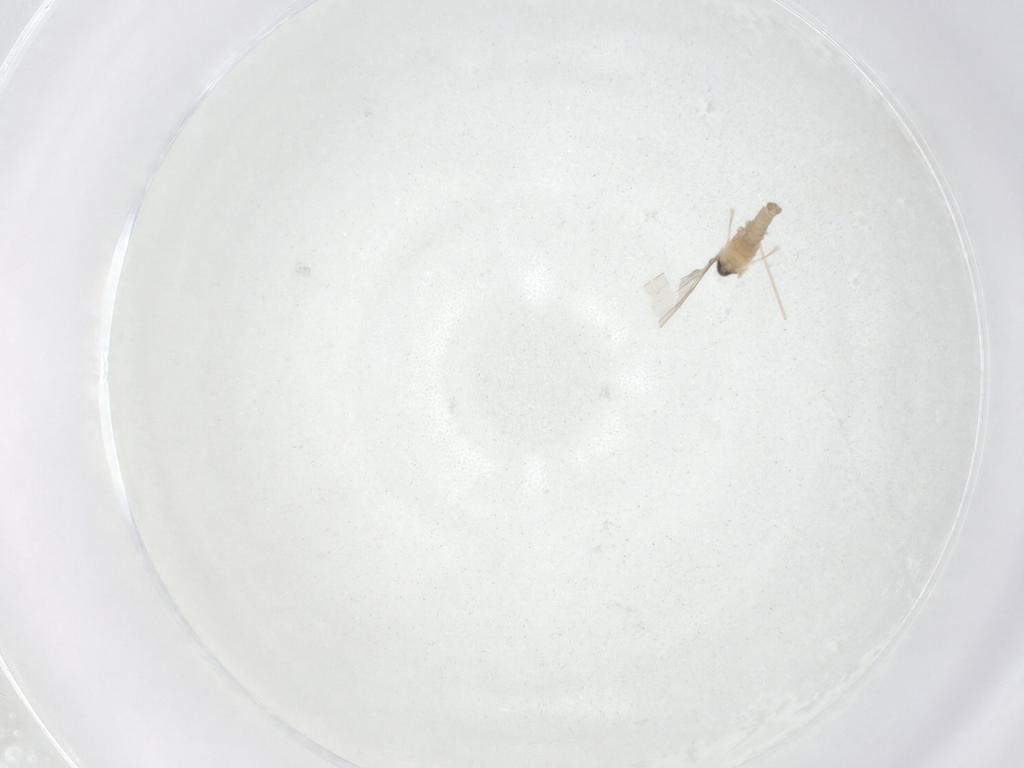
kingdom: Animalia
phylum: Arthropoda
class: Insecta
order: Diptera
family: Cecidomyiidae
